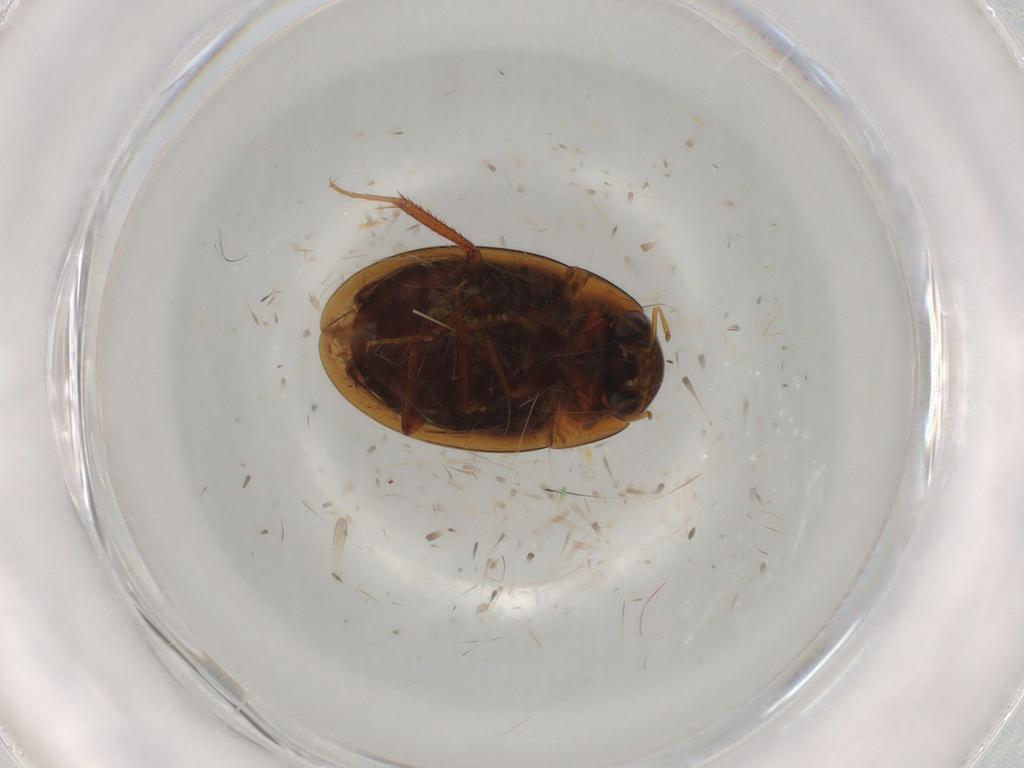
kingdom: Animalia
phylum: Arthropoda
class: Insecta
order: Coleoptera
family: Hydrophilidae
